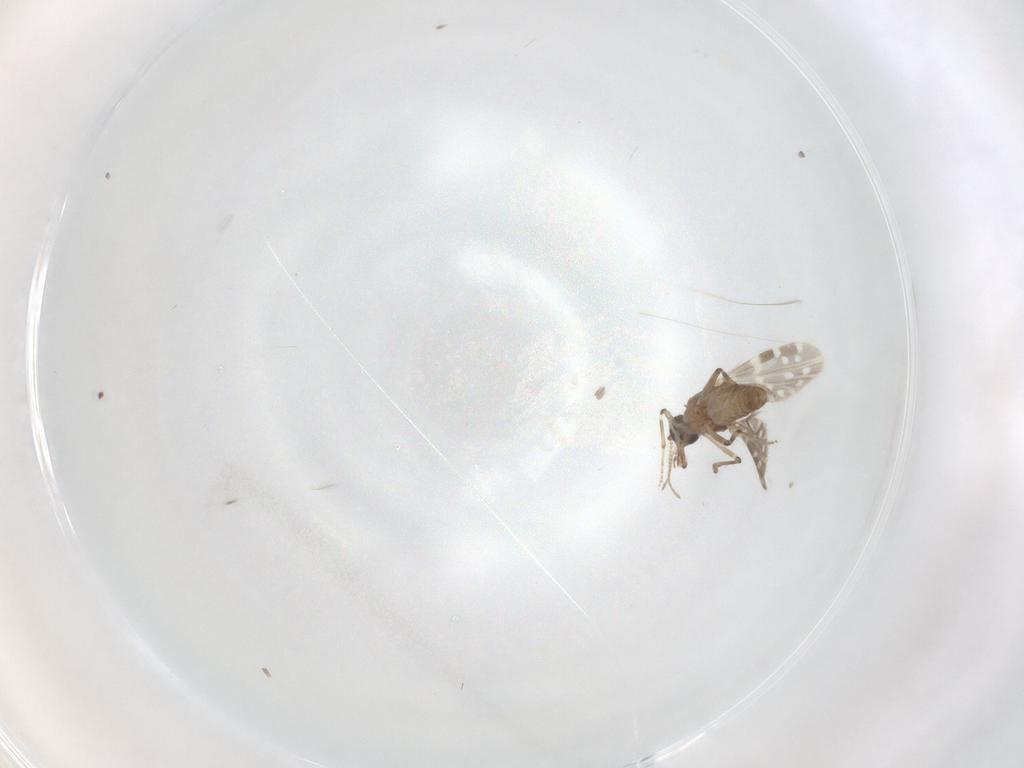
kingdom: Animalia
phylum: Arthropoda
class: Insecta
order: Diptera
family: Ceratopogonidae
